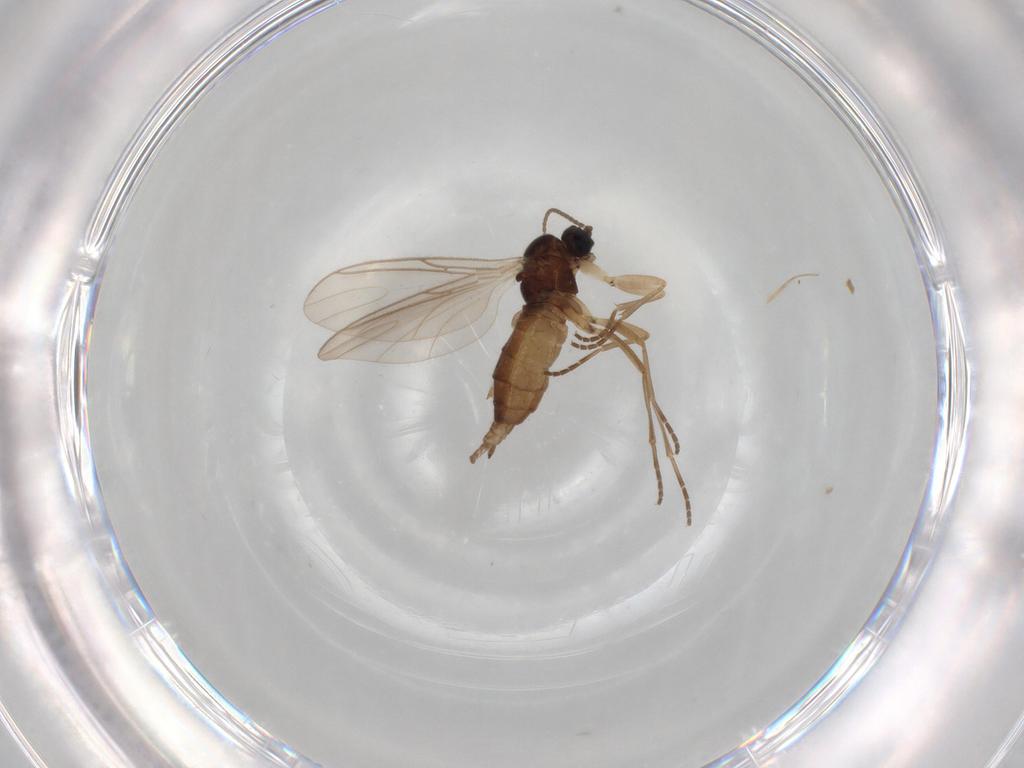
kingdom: Animalia
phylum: Arthropoda
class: Insecta
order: Diptera
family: Sciaridae
